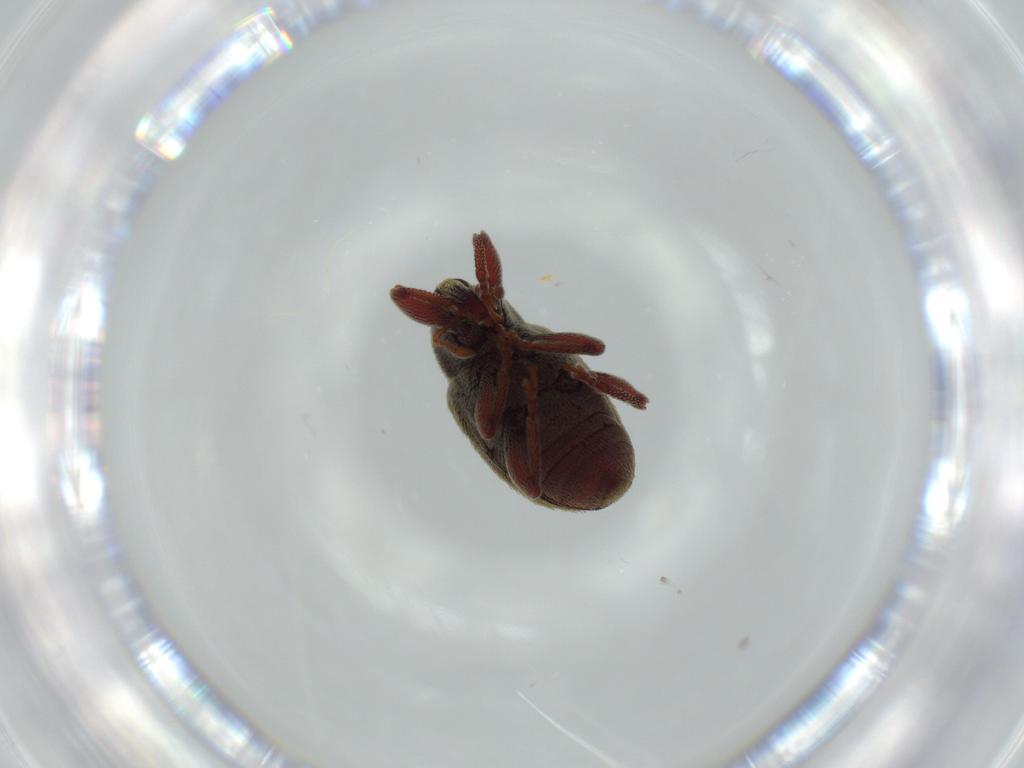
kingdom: Animalia
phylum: Arthropoda
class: Insecta
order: Coleoptera
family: Curculionidae
